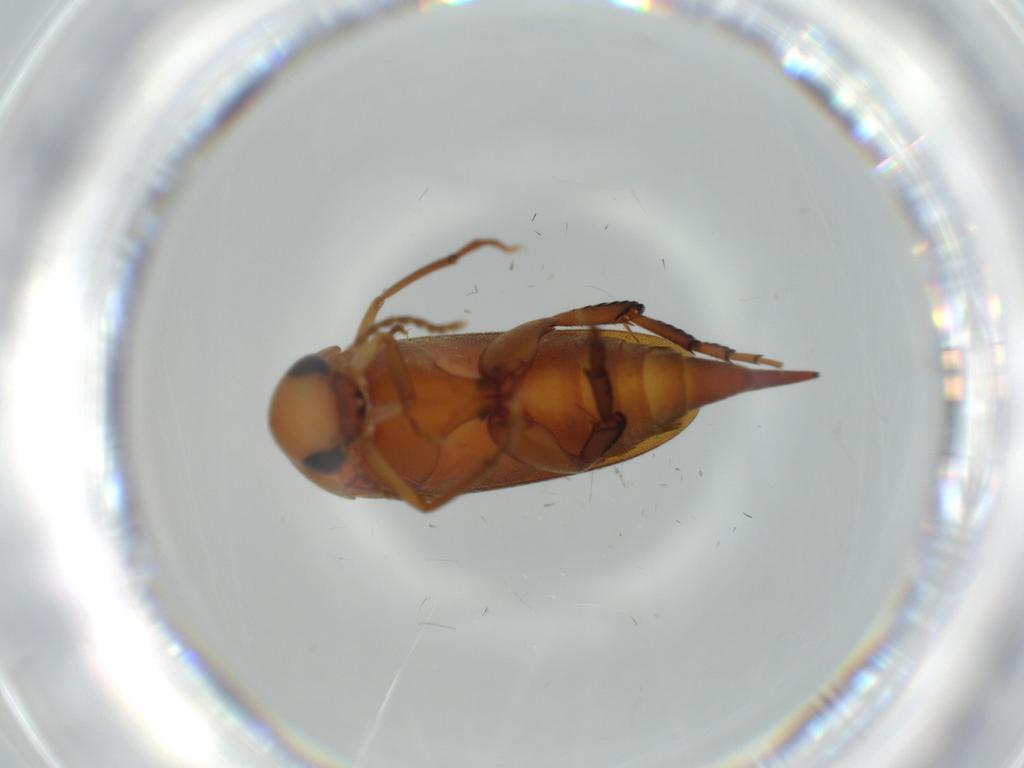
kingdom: Animalia
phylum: Arthropoda
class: Insecta
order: Coleoptera
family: Mordellidae
